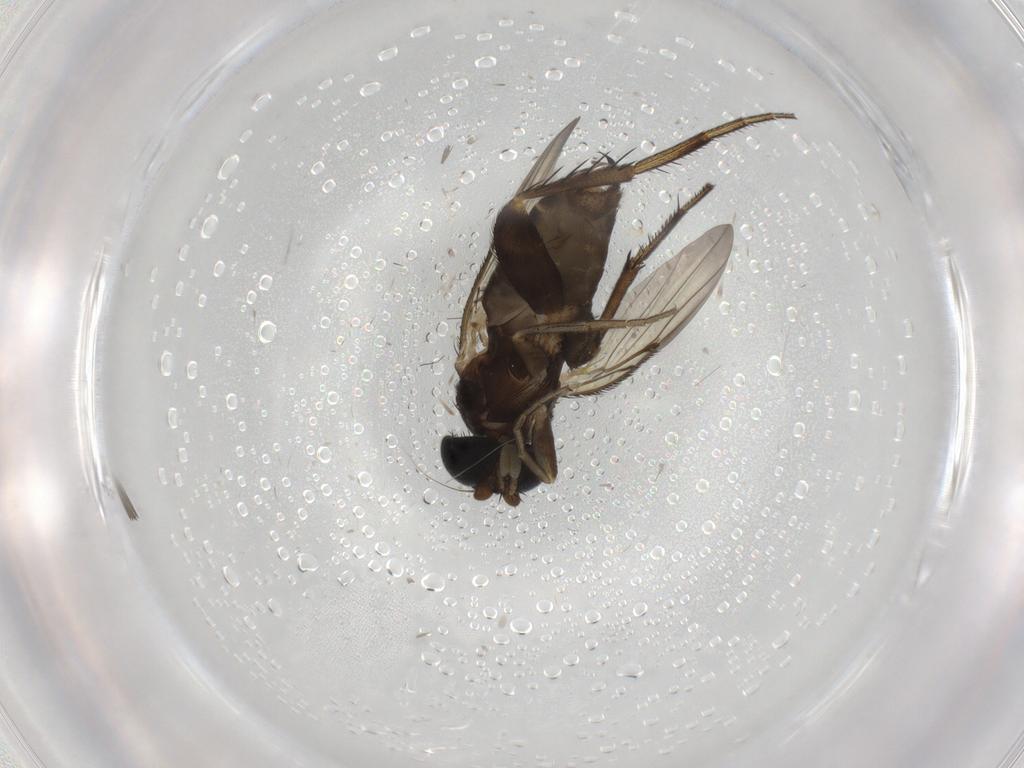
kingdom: Animalia
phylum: Arthropoda
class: Insecta
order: Diptera
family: Phoridae
